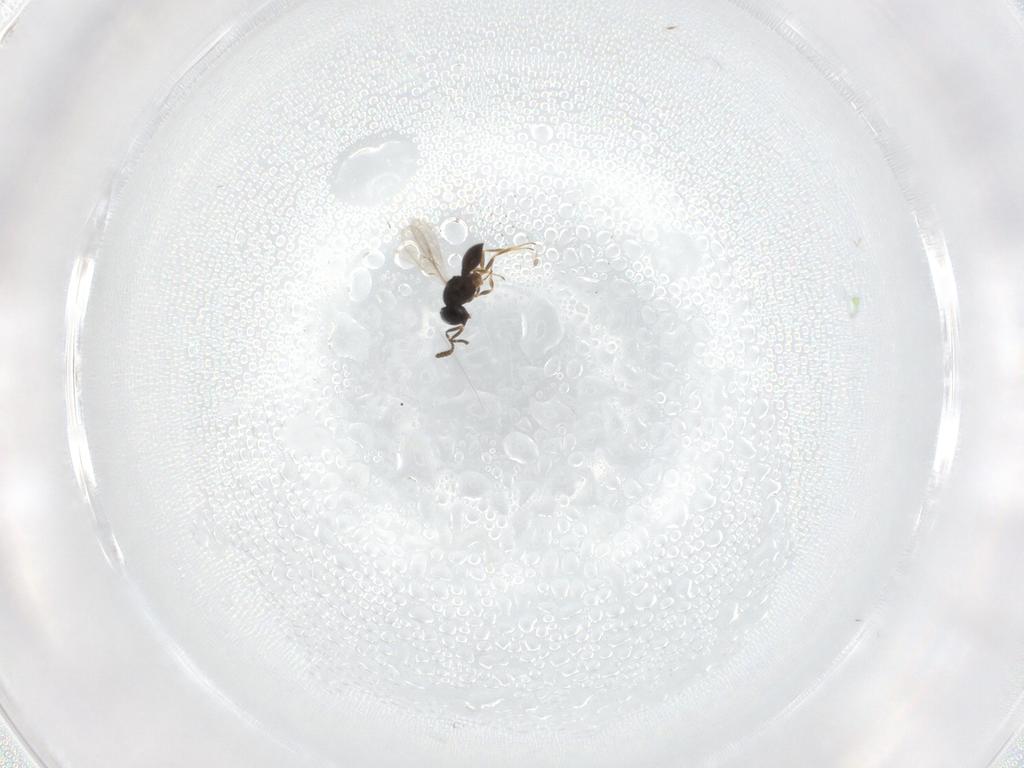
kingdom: Animalia
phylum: Arthropoda
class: Insecta
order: Hymenoptera
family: Scelionidae
